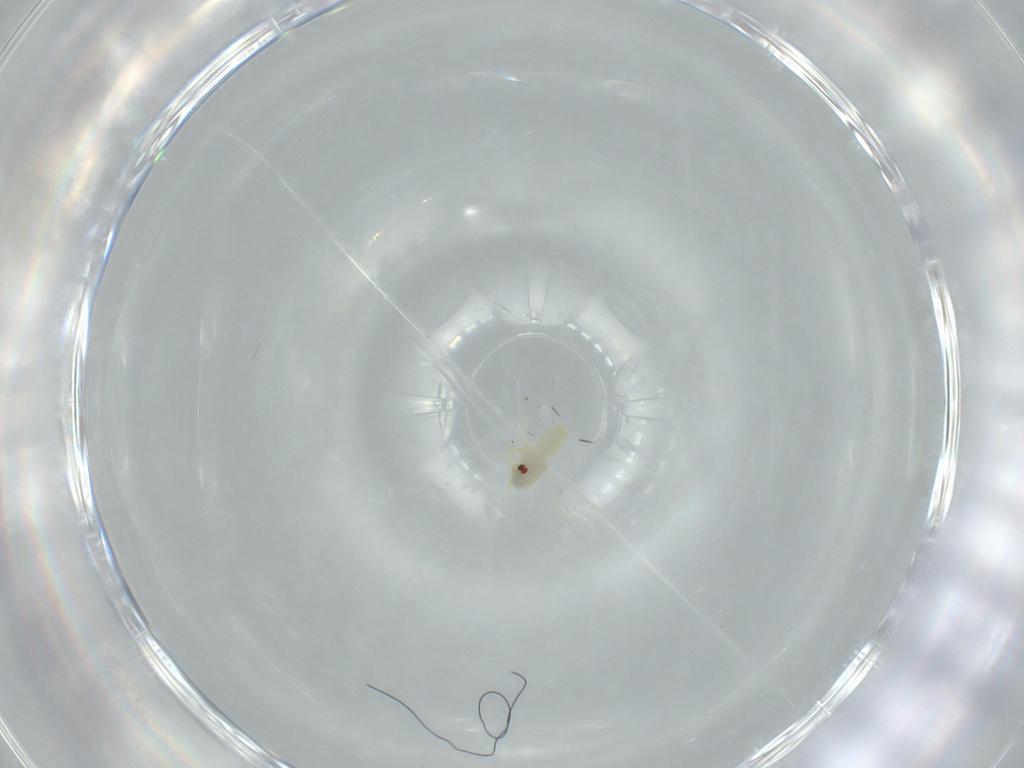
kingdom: Animalia
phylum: Arthropoda
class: Insecta
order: Hemiptera
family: Aleyrodidae
